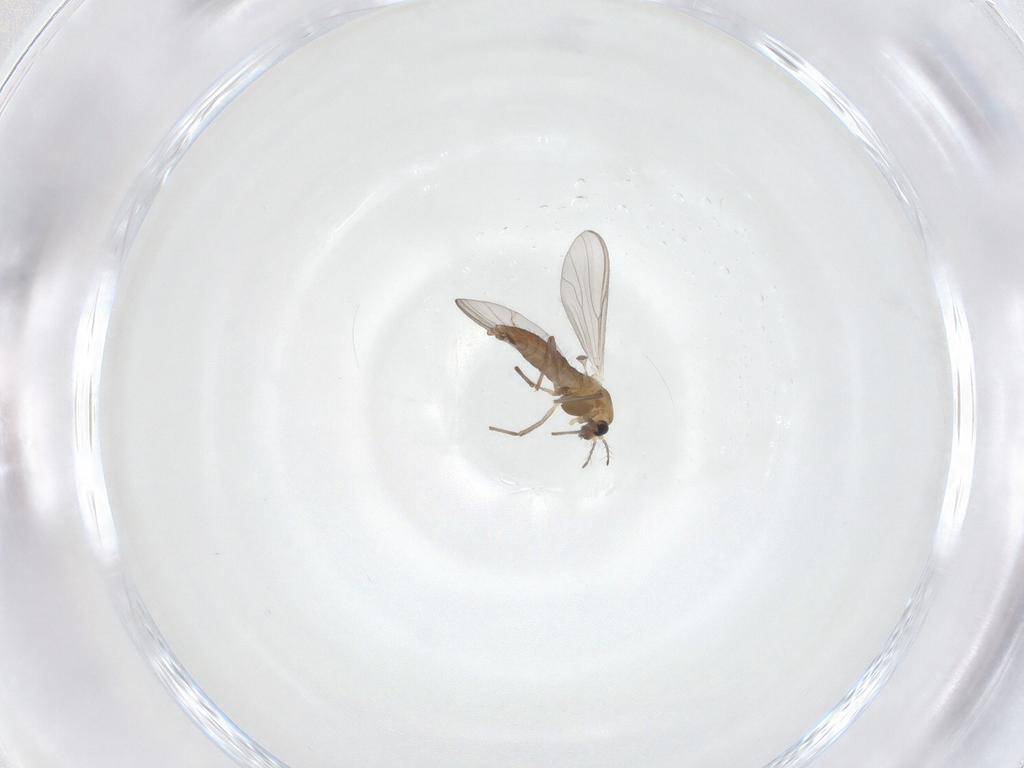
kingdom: Animalia
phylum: Arthropoda
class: Insecta
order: Diptera
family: Chironomidae
